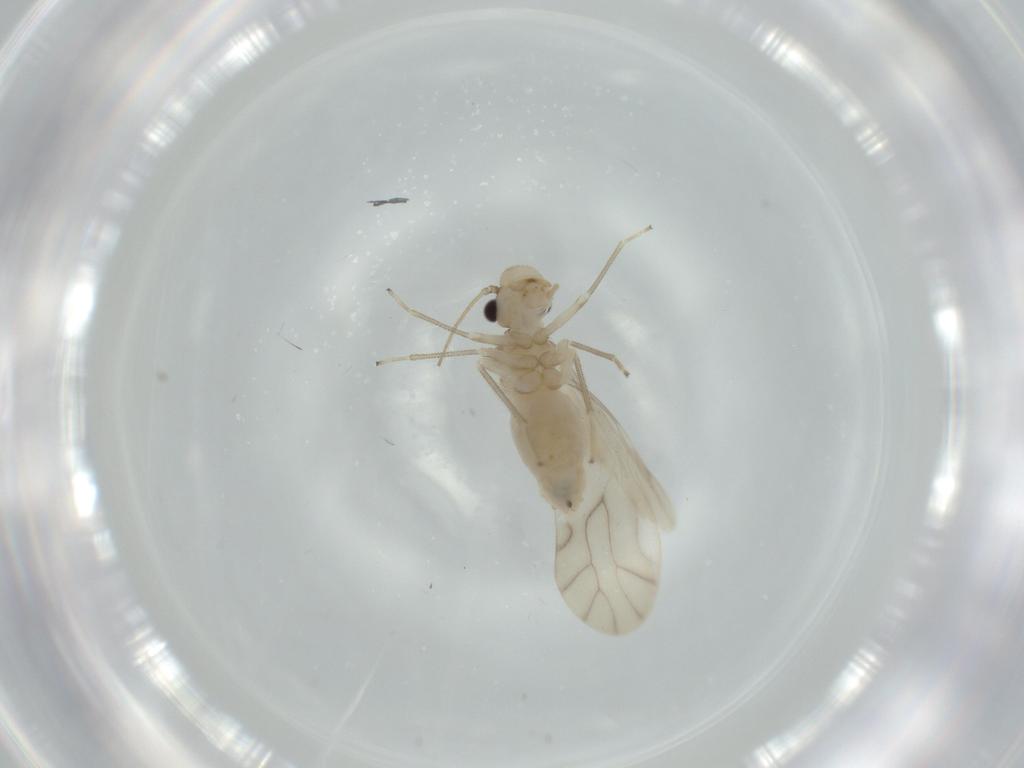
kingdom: Animalia
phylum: Arthropoda
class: Insecta
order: Psocodea
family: Caeciliusidae
